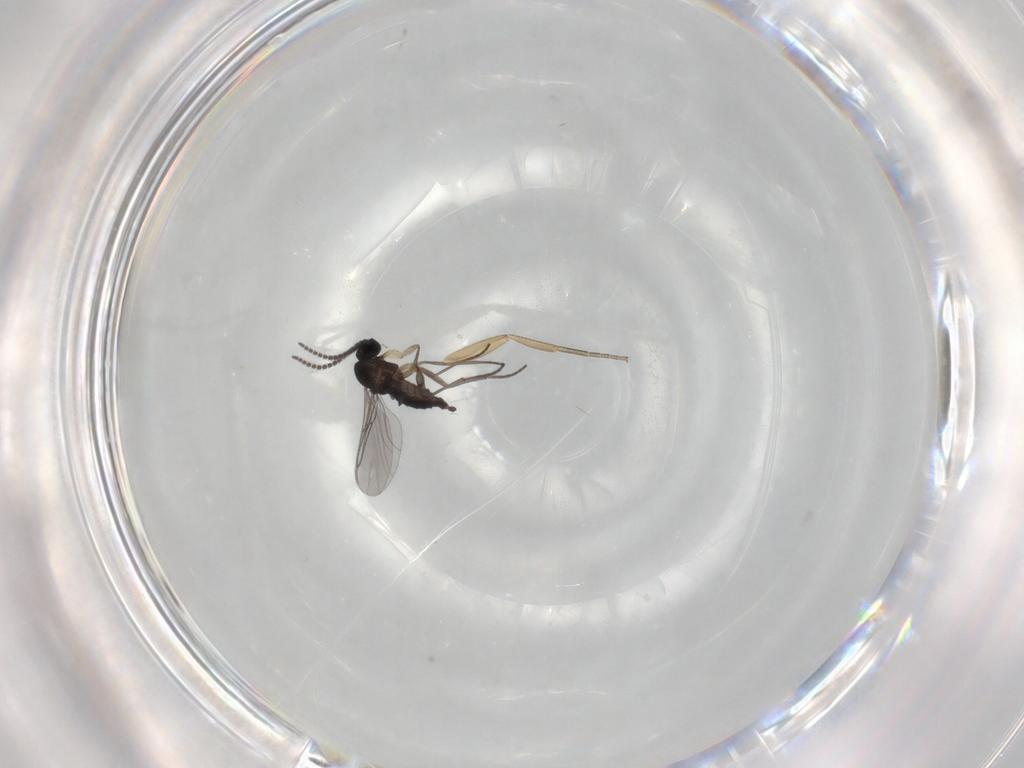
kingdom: Animalia
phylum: Arthropoda
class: Insecta
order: Diptera
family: Sciaridae
